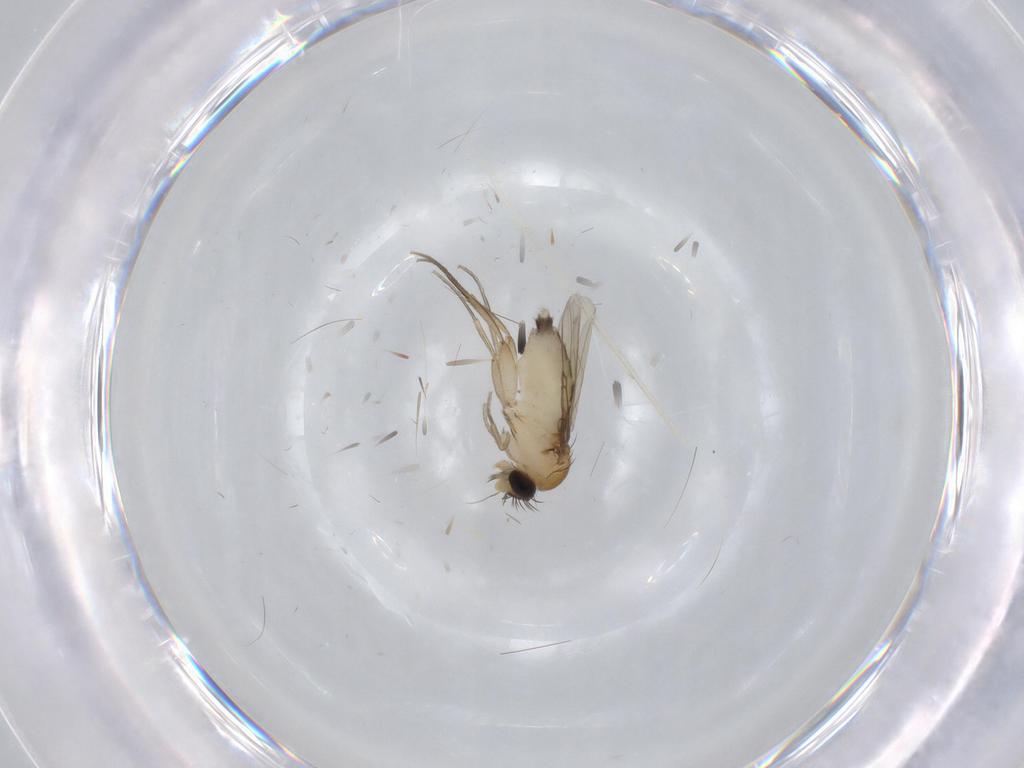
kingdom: Animalia
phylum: Arthropoda
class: Insecta
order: Diptera
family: Phoridae
